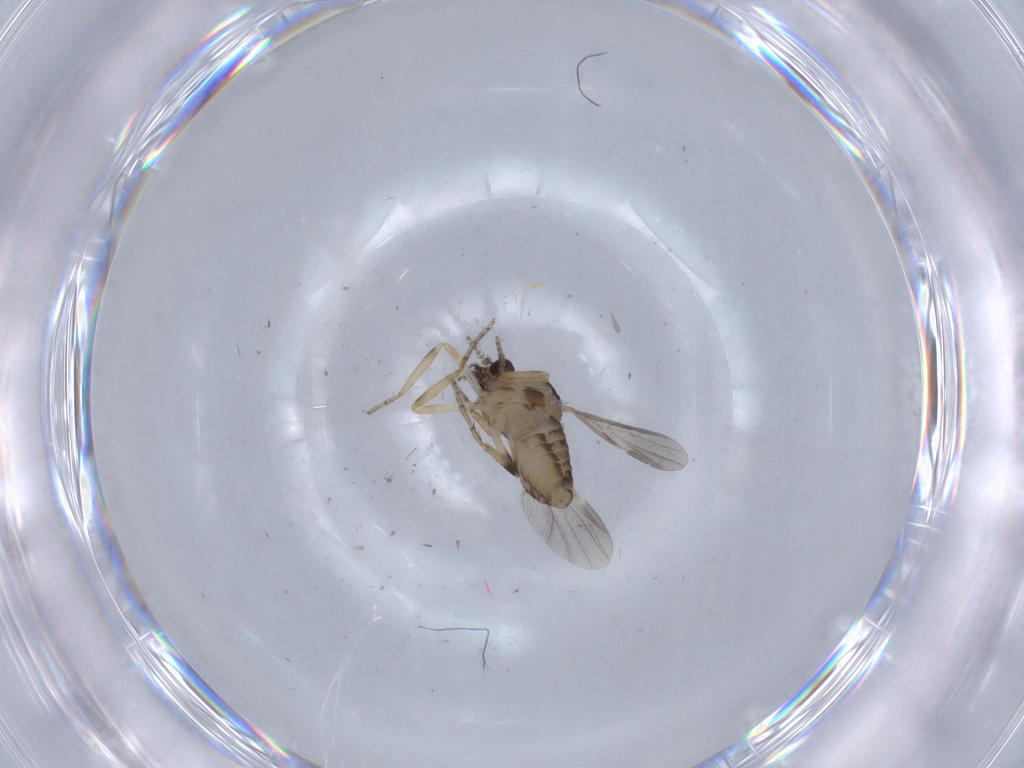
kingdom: Animalia
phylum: Arthropoda
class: Insecta
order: Diptera
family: Ceratopogonidae
